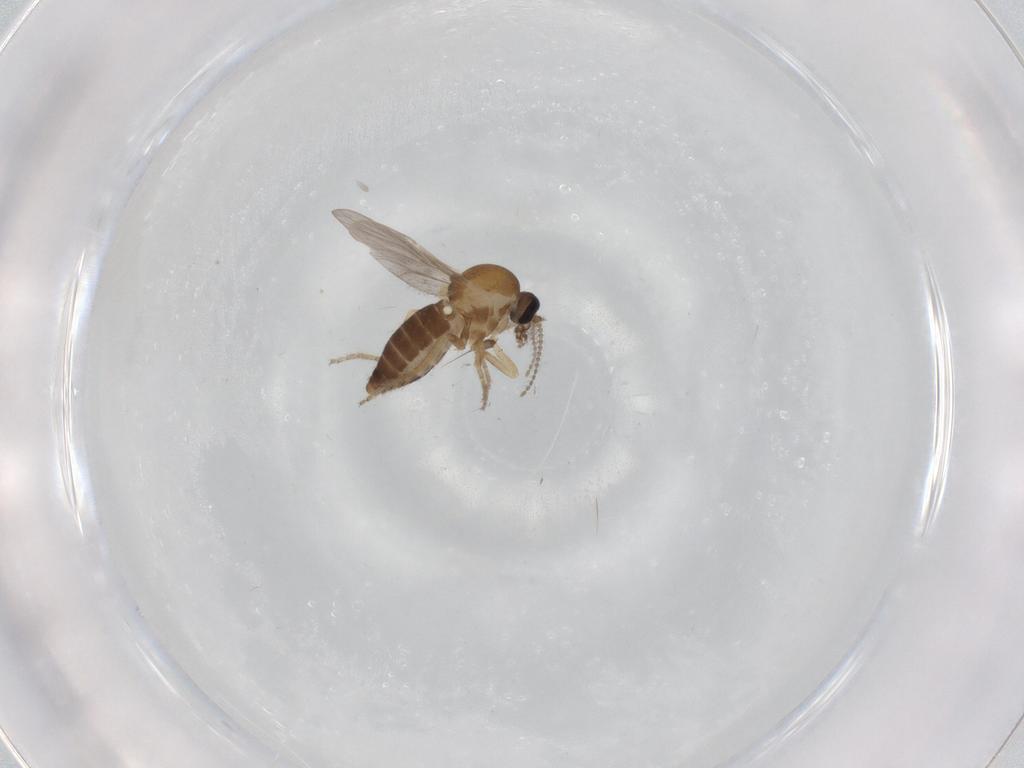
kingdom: Animalia
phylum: Arthropoda
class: Insecta
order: Diptera
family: Ceratopogonidae
